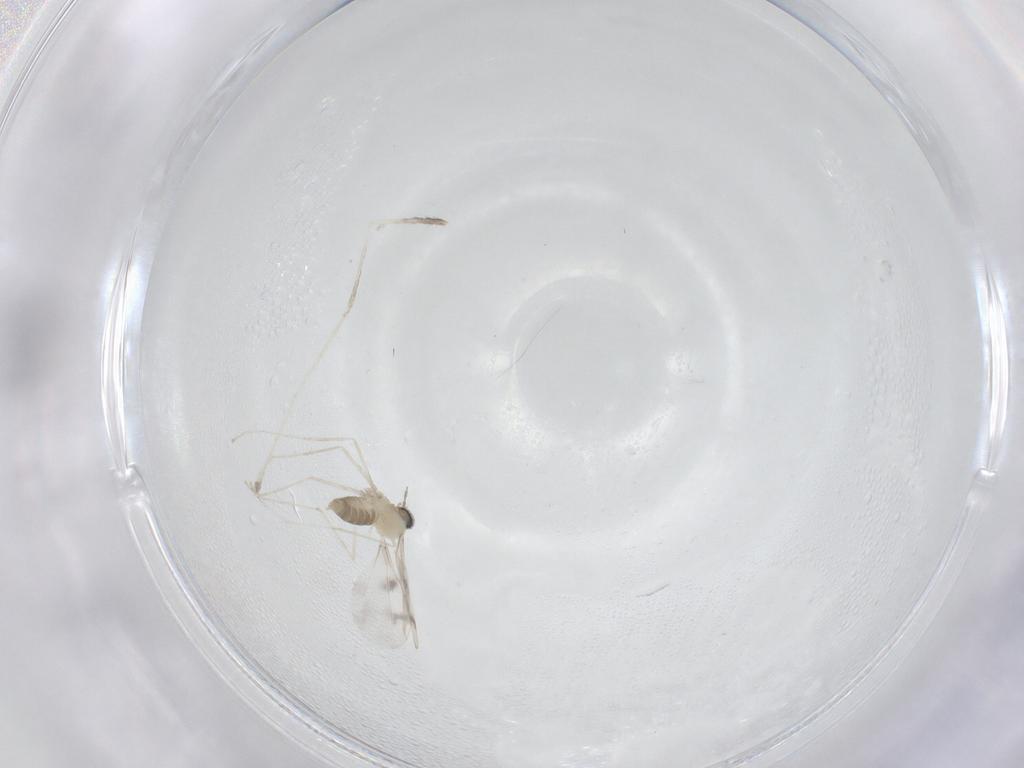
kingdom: Animalia
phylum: Arthropoda
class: Insecta
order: Diptera
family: Cecidomyiidae
